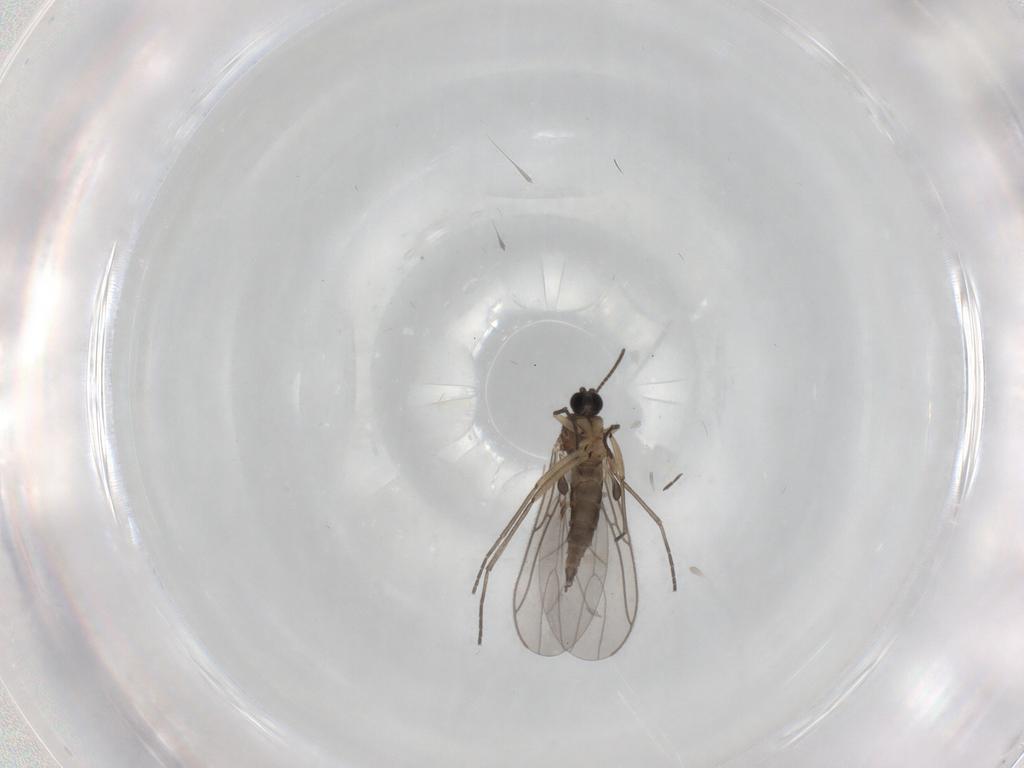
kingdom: Animalia
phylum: Arthropoda
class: Insecta
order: Diptera
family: Sciaridae
